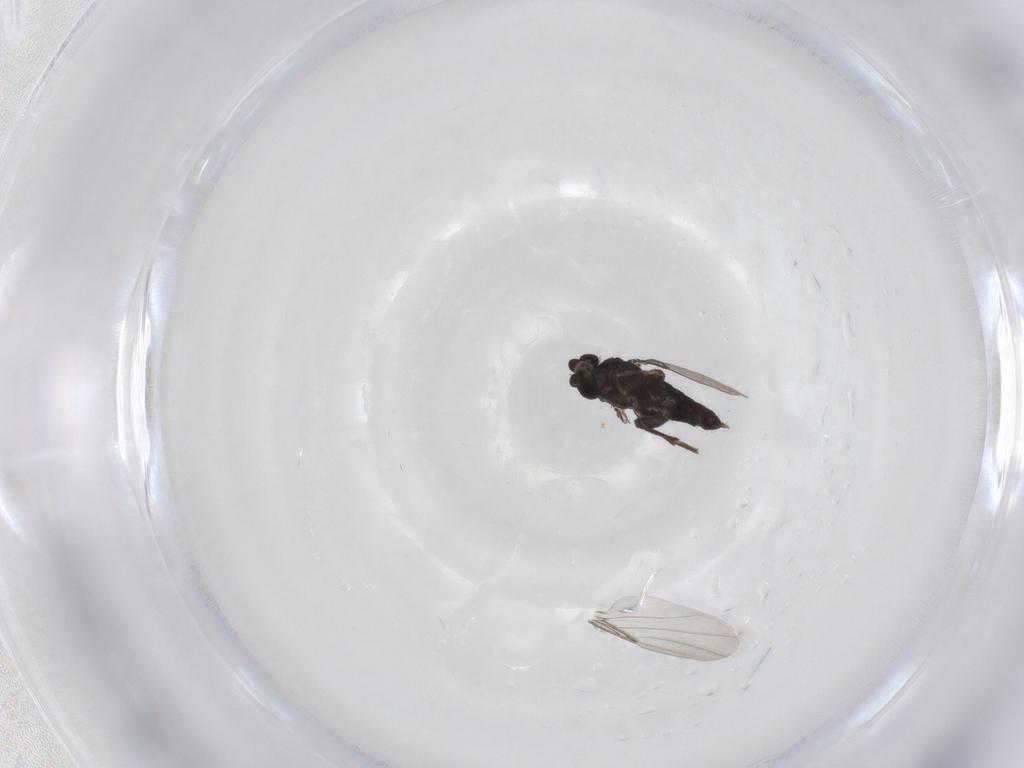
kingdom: Animalia
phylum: Arthropoda
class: Insecta
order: Diptera
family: Phoridae
